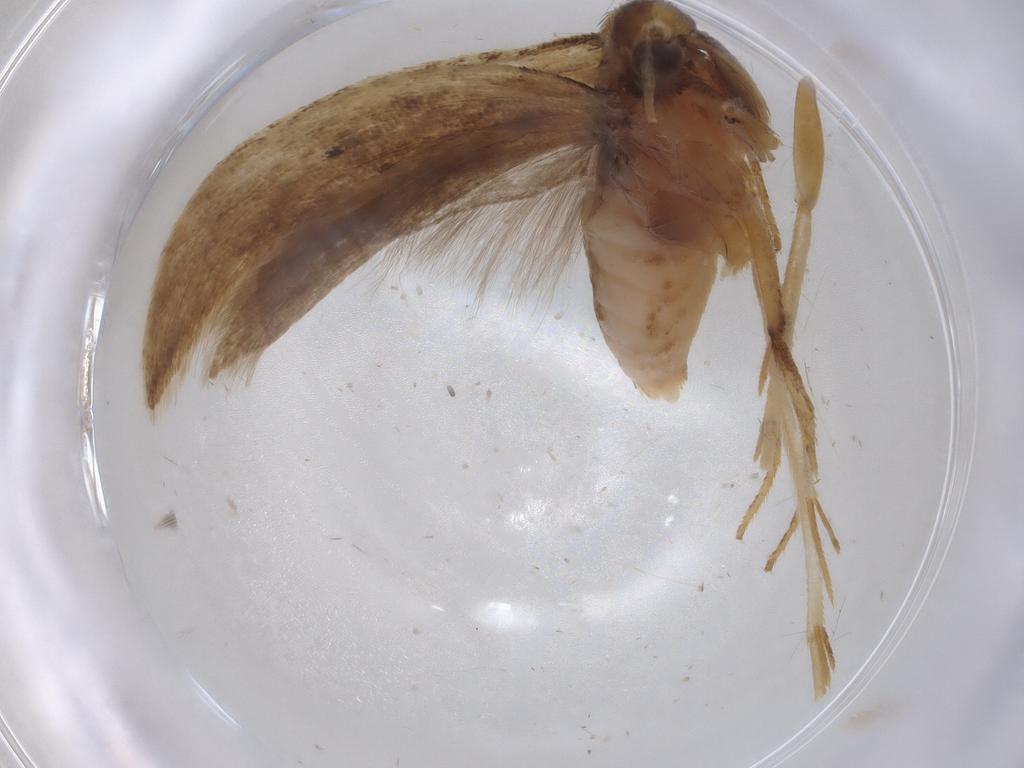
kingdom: Animalia
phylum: Arthropoda
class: Insecta
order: Lepidoptera
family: Gelechiidae
